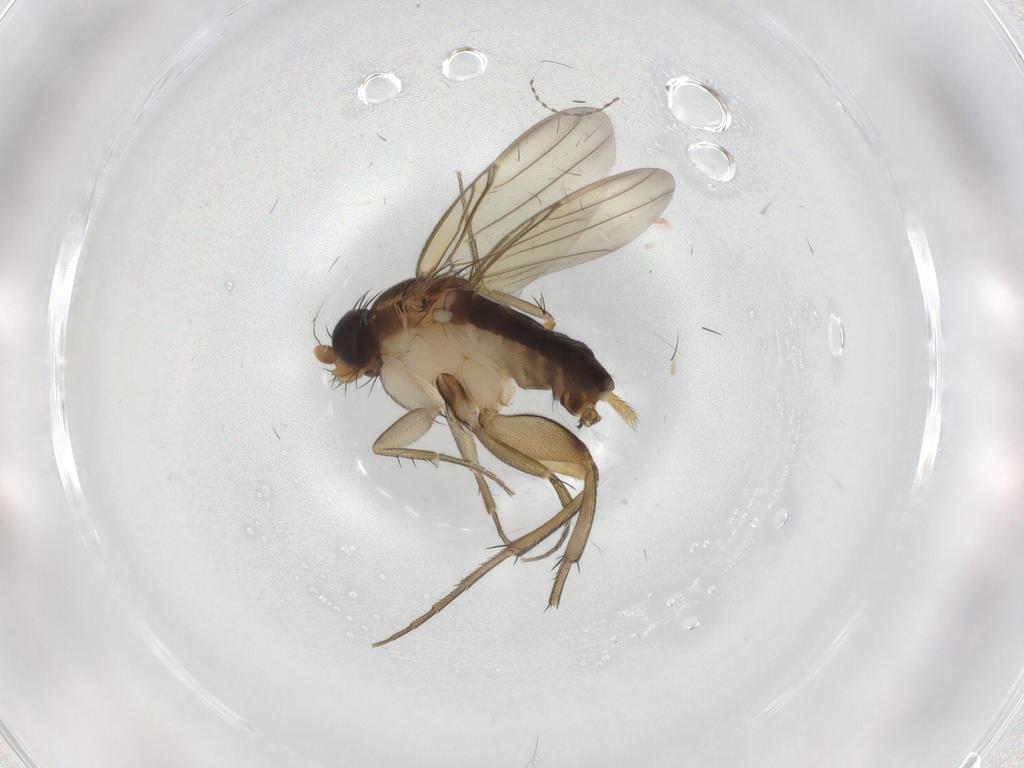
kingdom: Animalia
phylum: Arthropoda
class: Insecta
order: Diptera
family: Phoridae
